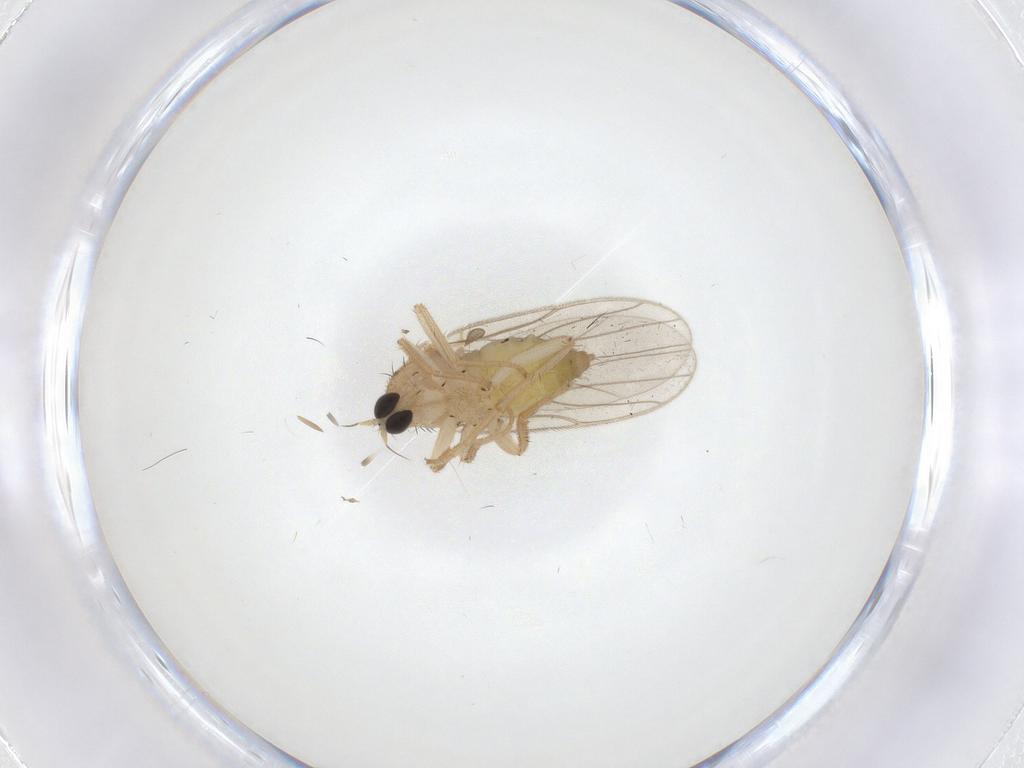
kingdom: Animalia
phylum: Arthropoda
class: Insecta
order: Diptera
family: Hybotidae
